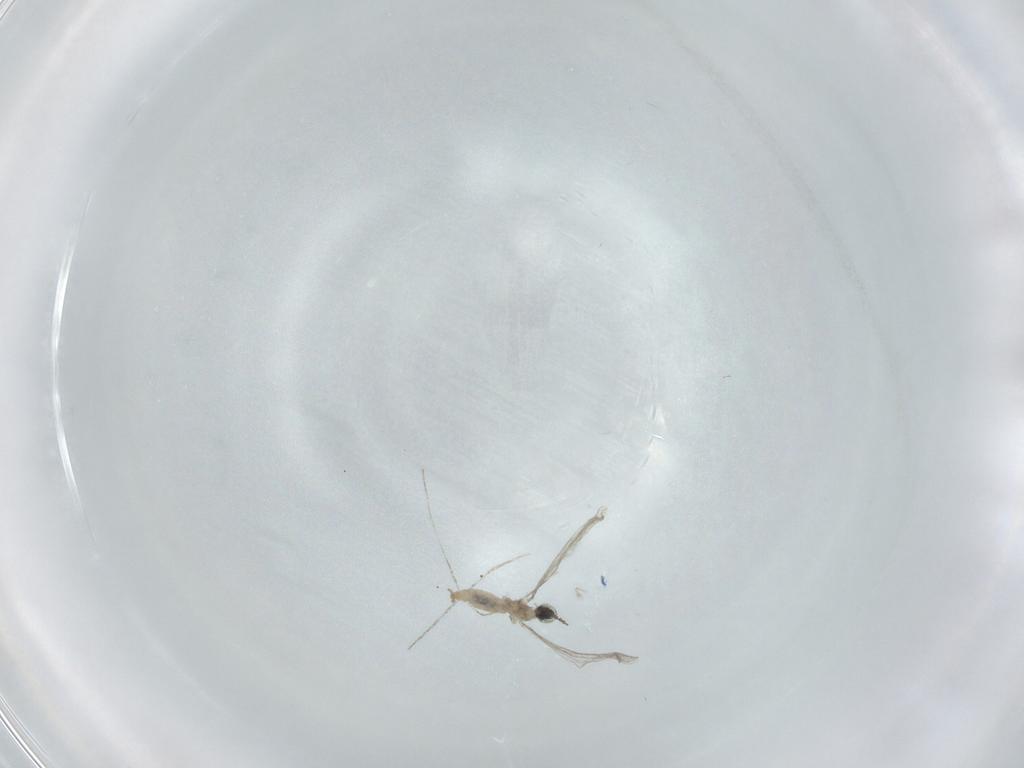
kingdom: Animalia
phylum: Arthropoda
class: Insecta
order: Diptera
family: Cecidomyiidae
